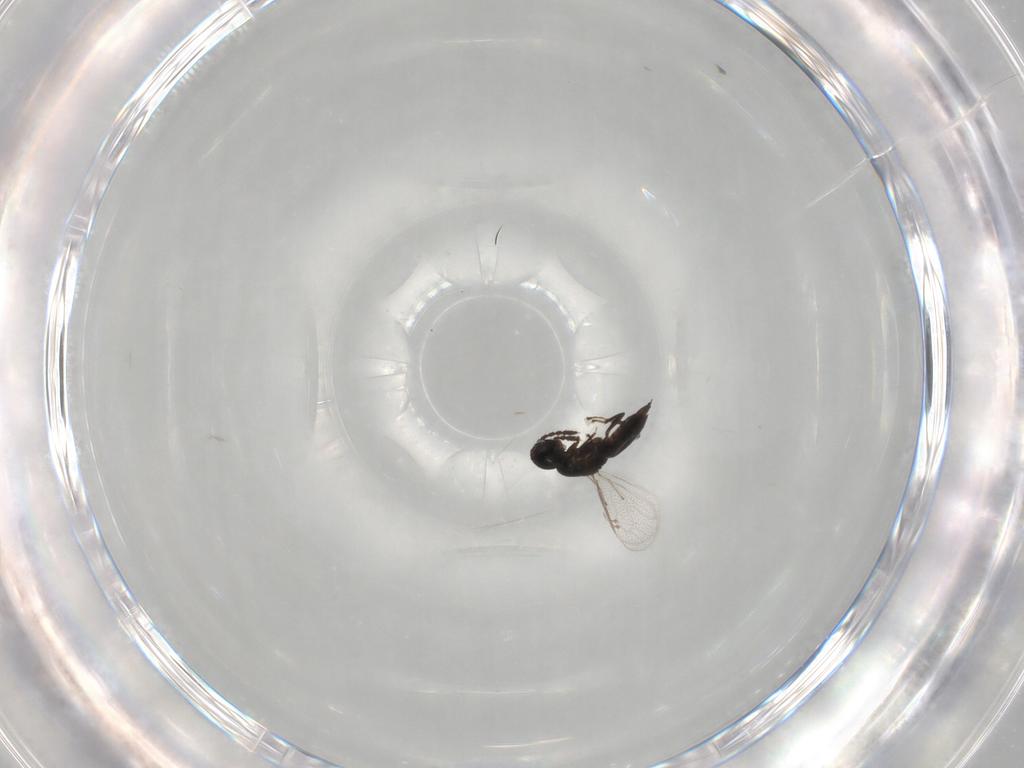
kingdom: Animalia
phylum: Arthropoda
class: Insecta
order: Hymenoptera
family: Eulophidae
